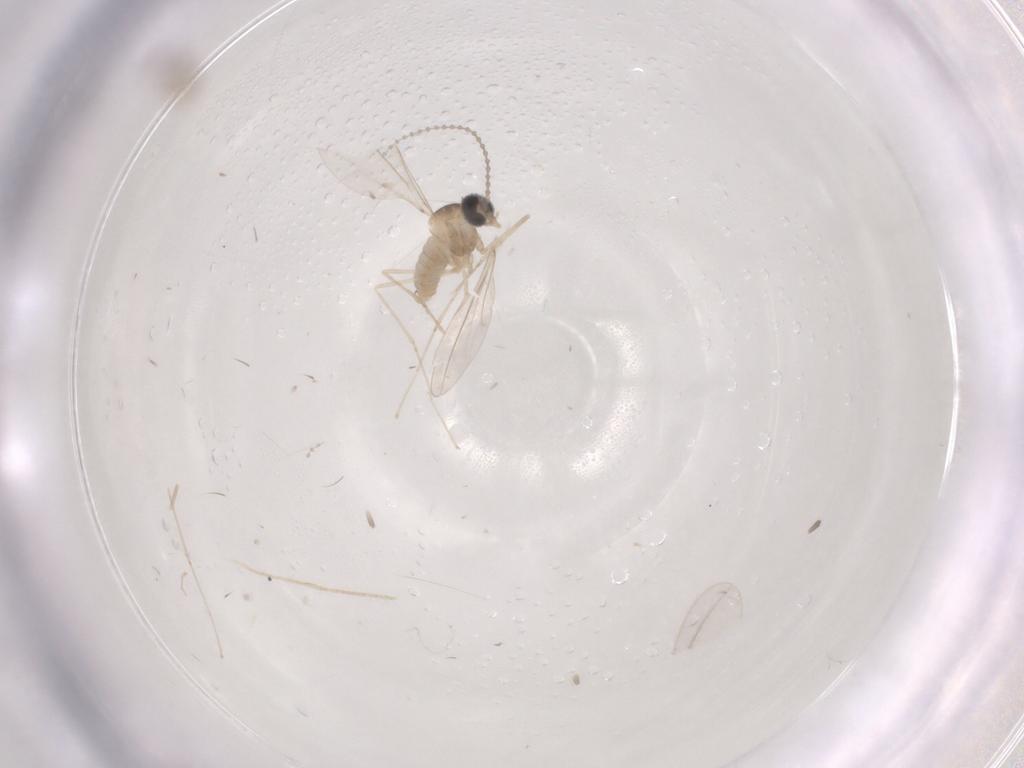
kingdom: Animalia
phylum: Arthropoda
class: Insecta
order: Diptera
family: Cecidomyiidae
